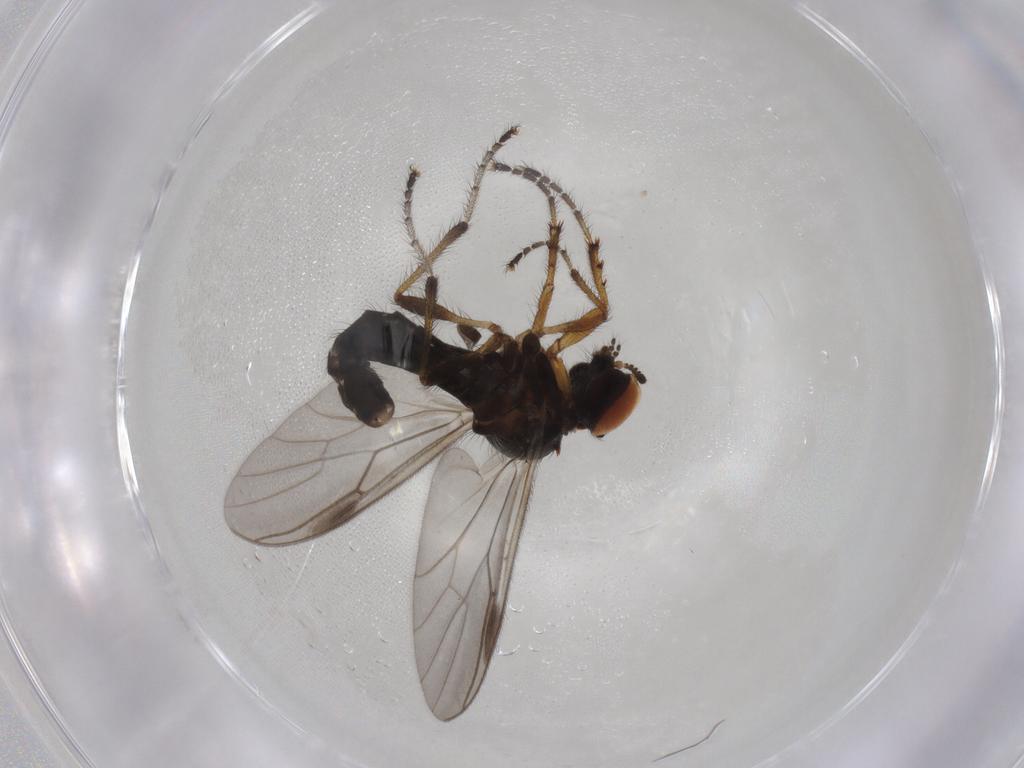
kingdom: Animalia
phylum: Arthropoda
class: Insecta
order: Diptera
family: Bibionidae
